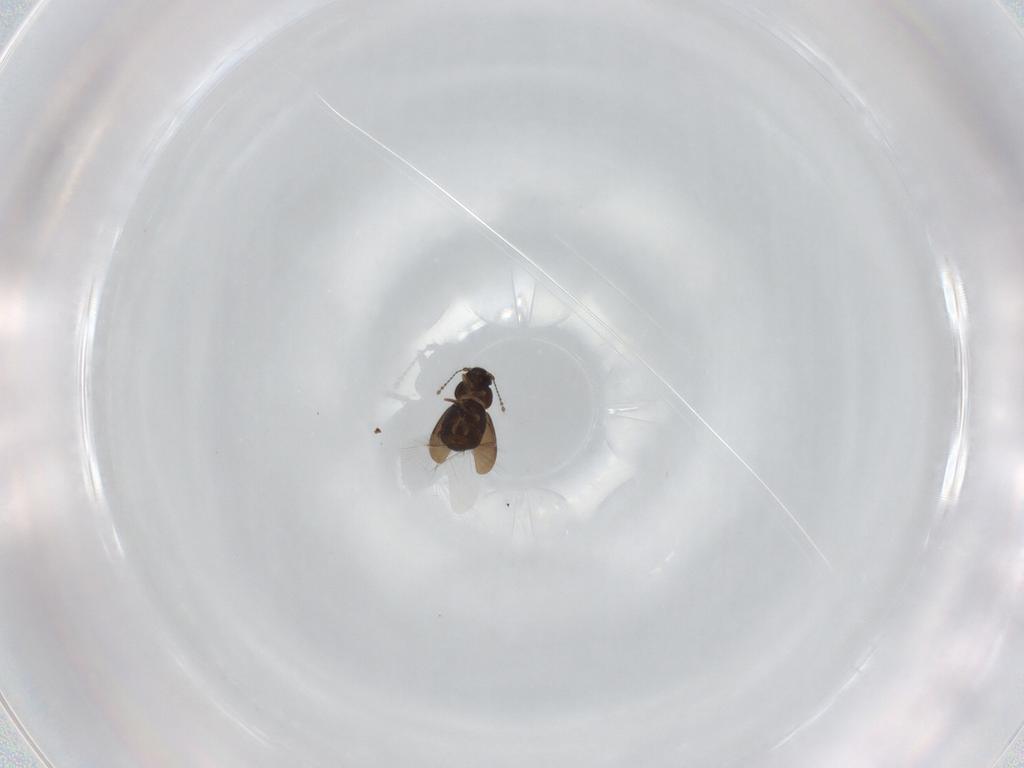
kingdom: Animalia
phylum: Arthropoda
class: Insecta
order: Coleoptera
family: Ptiliidae
